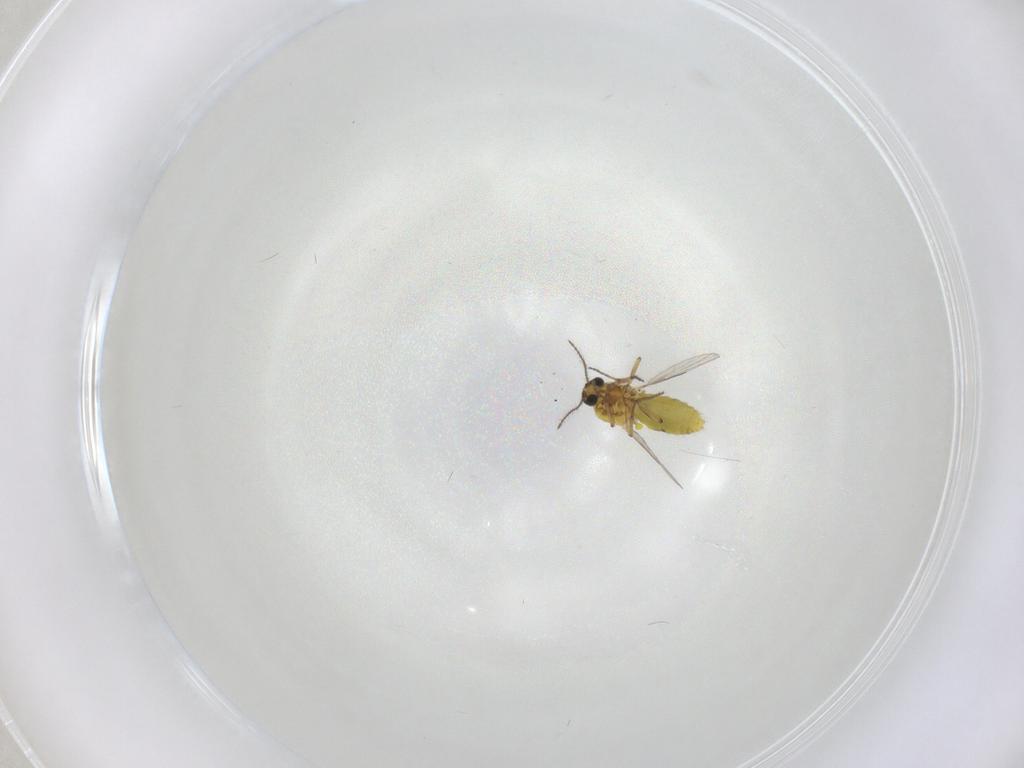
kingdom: Animalia
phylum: Arthropoda
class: Insecta
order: Diptera
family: Ceratopogonidae
